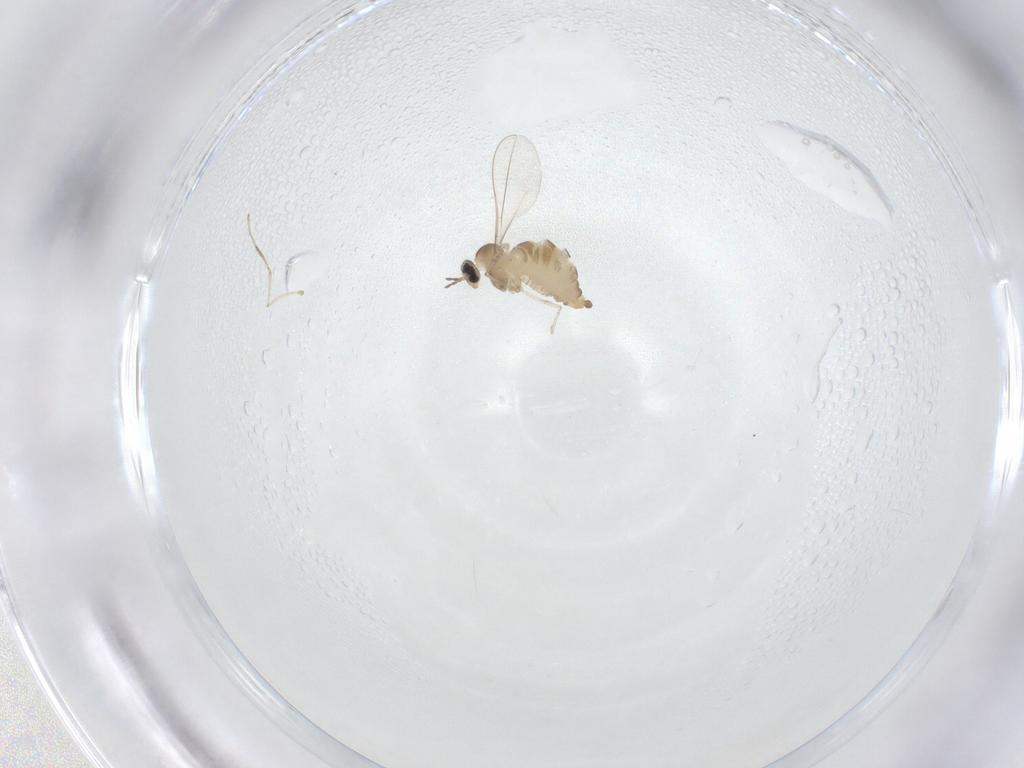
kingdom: Animalia
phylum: Arthropoda
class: Insecta
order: Diptera
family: Cecidomyiidae
